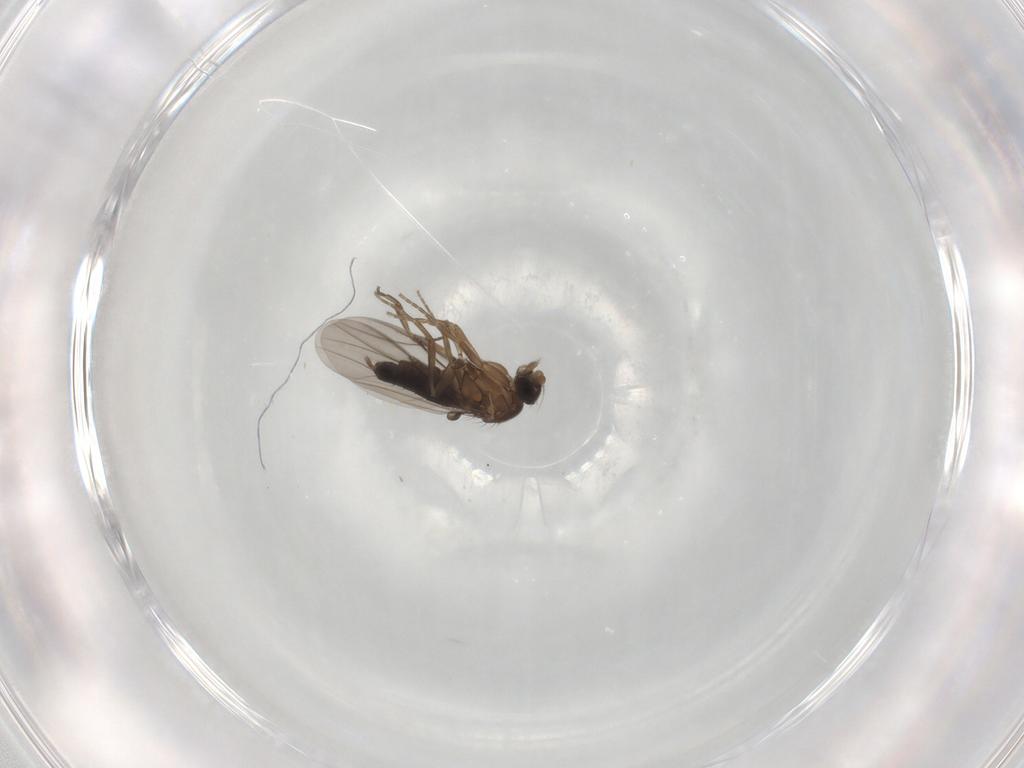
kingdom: Animalia
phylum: Arthropoda
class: Insecta
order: Diptera
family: Phoridae
